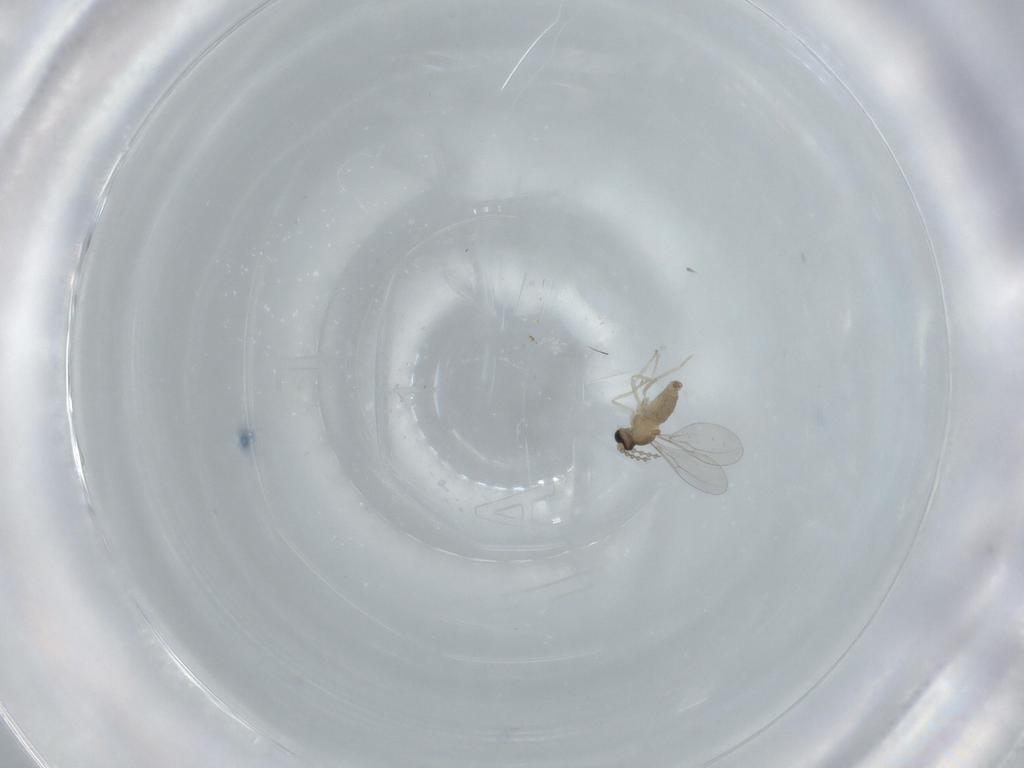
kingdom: Animalia
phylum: Arthropoda
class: Insecta
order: Diptera
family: Cecidomyiidae
